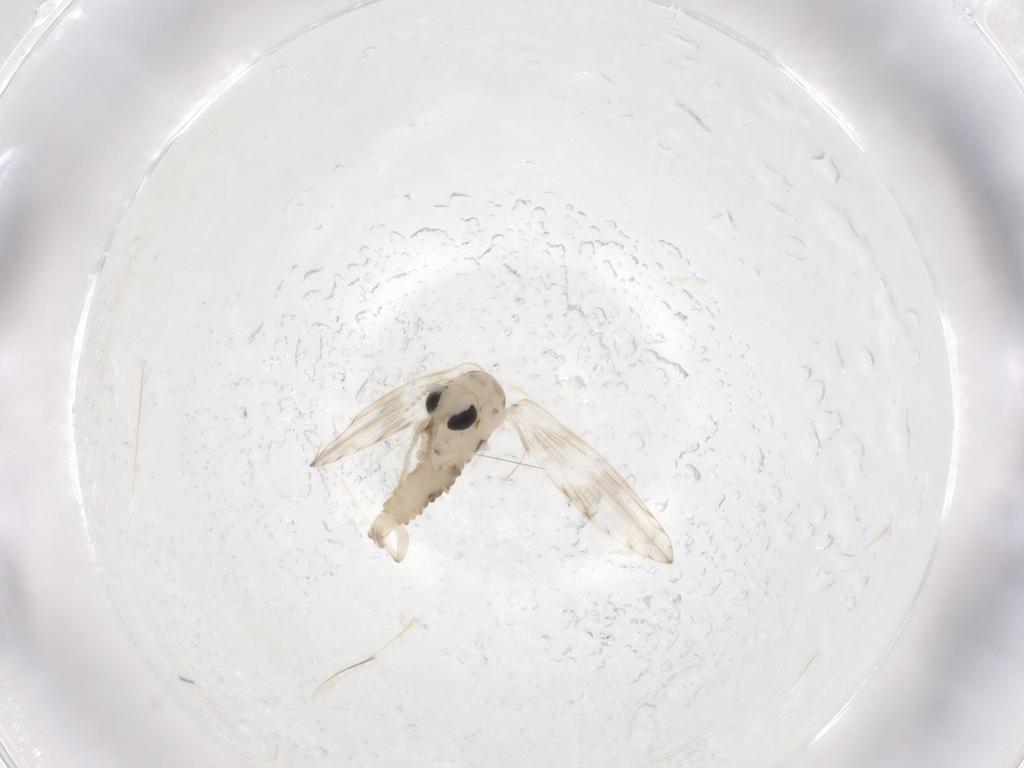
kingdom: Animalia
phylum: Arthropoda
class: Insecta
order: Diptera
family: Psychodidae
